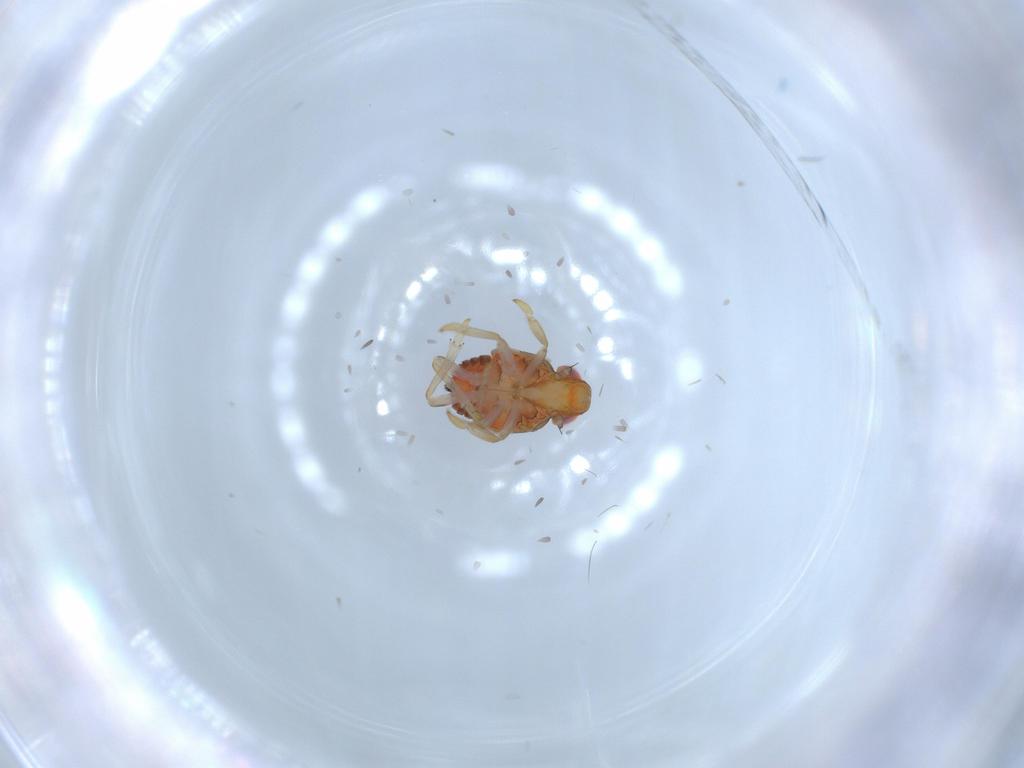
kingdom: Animalia
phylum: Arthropoda
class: Insecta
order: Hemiptera
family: Issidae
